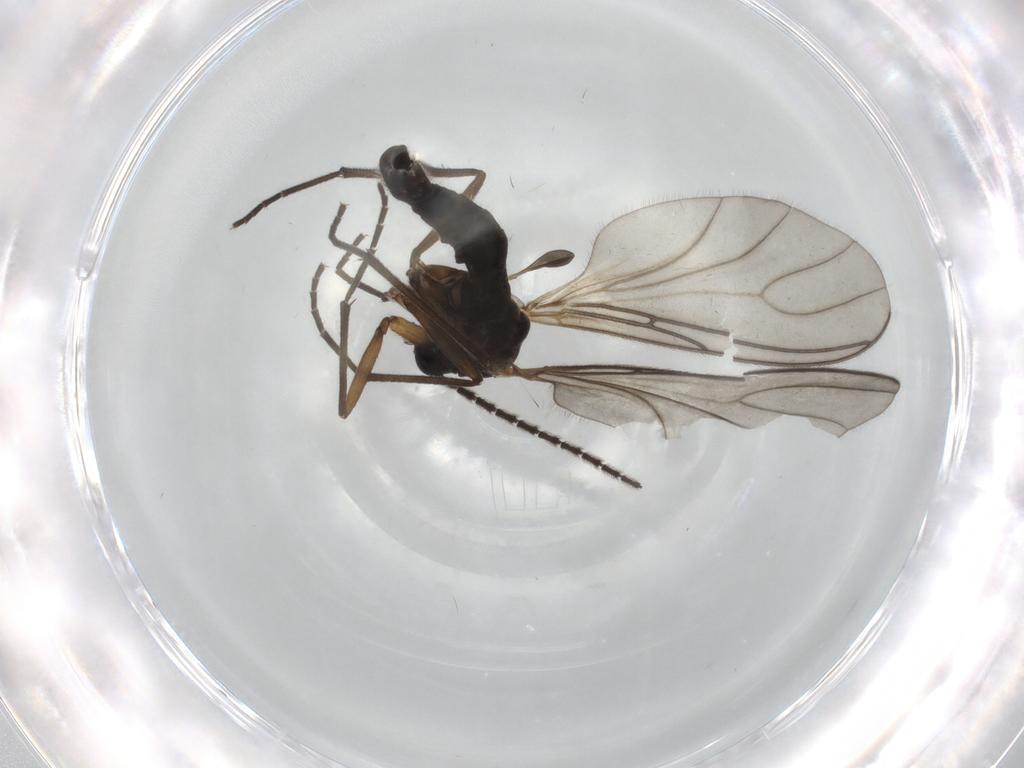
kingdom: Animalia
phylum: Arthropoda
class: Insecta
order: Diptera
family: Sciaridae
